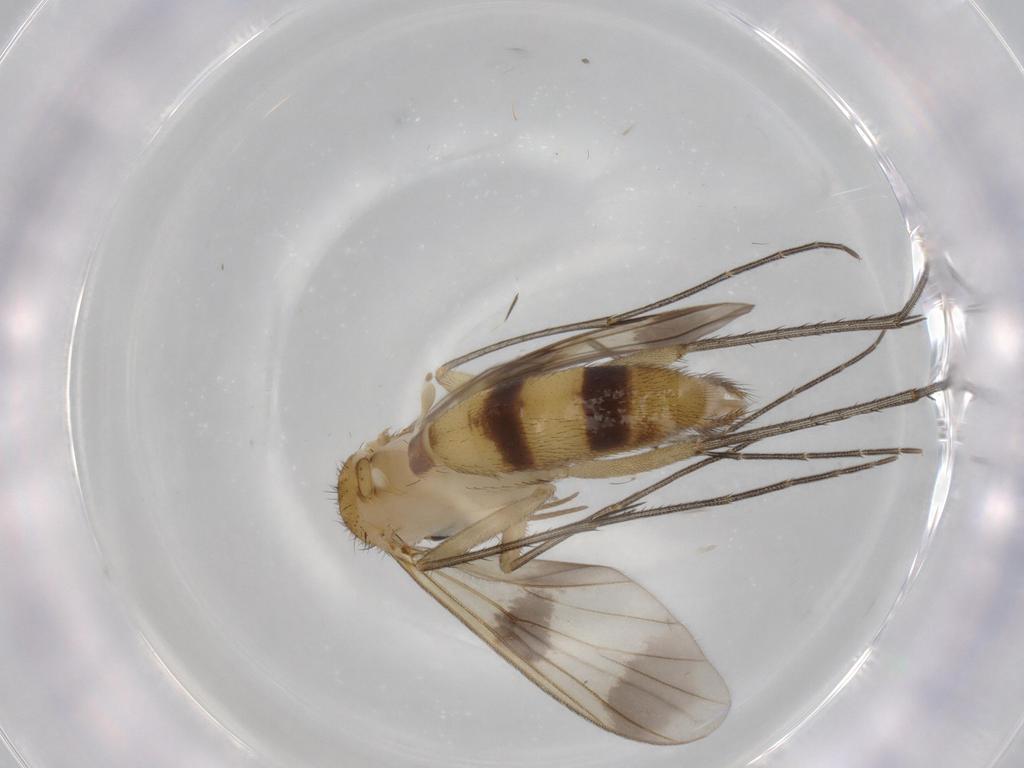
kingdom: Animalia
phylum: Arthropoda
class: Insecta
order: Diptera
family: Mycetophilidae
